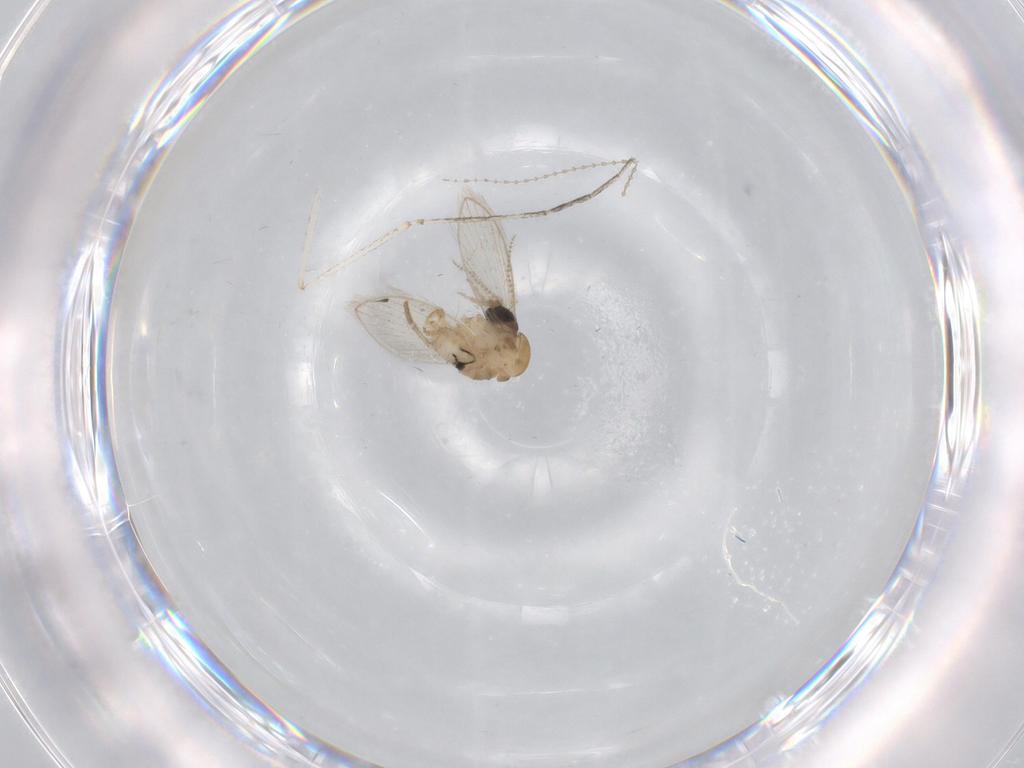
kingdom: Animalia
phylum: Arthropoda
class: Insecta
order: Diptera
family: Psychodidae
